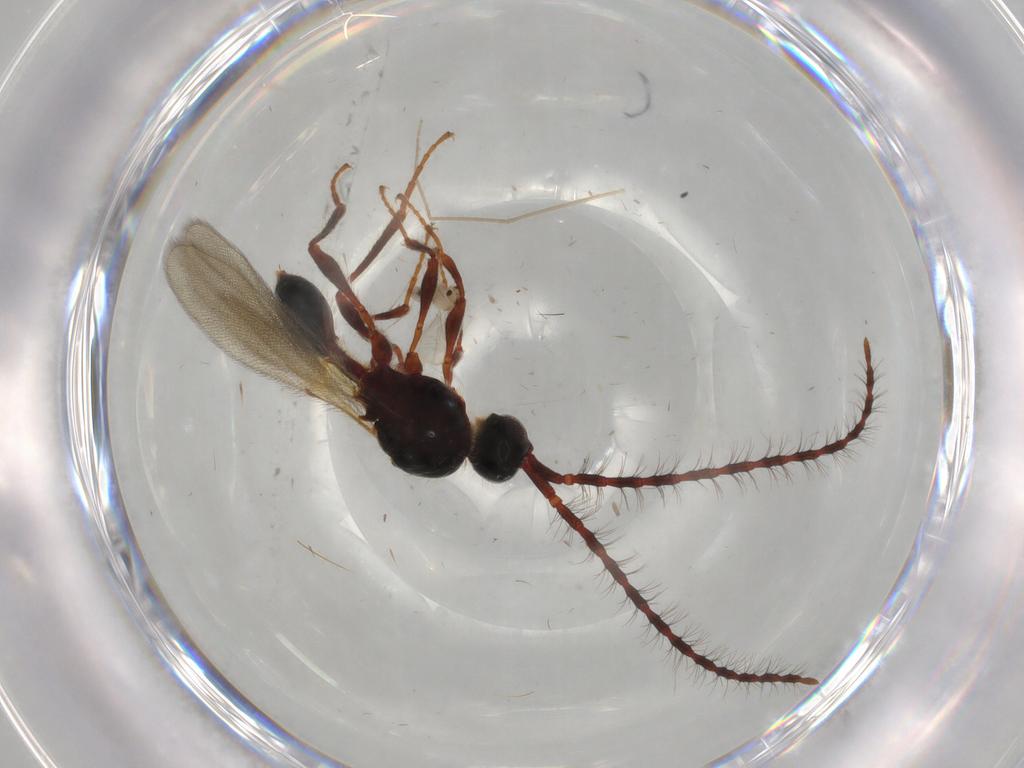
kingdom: Animalia
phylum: Arthropoda
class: Insecta
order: Hymenoptera
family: Diapriidae
